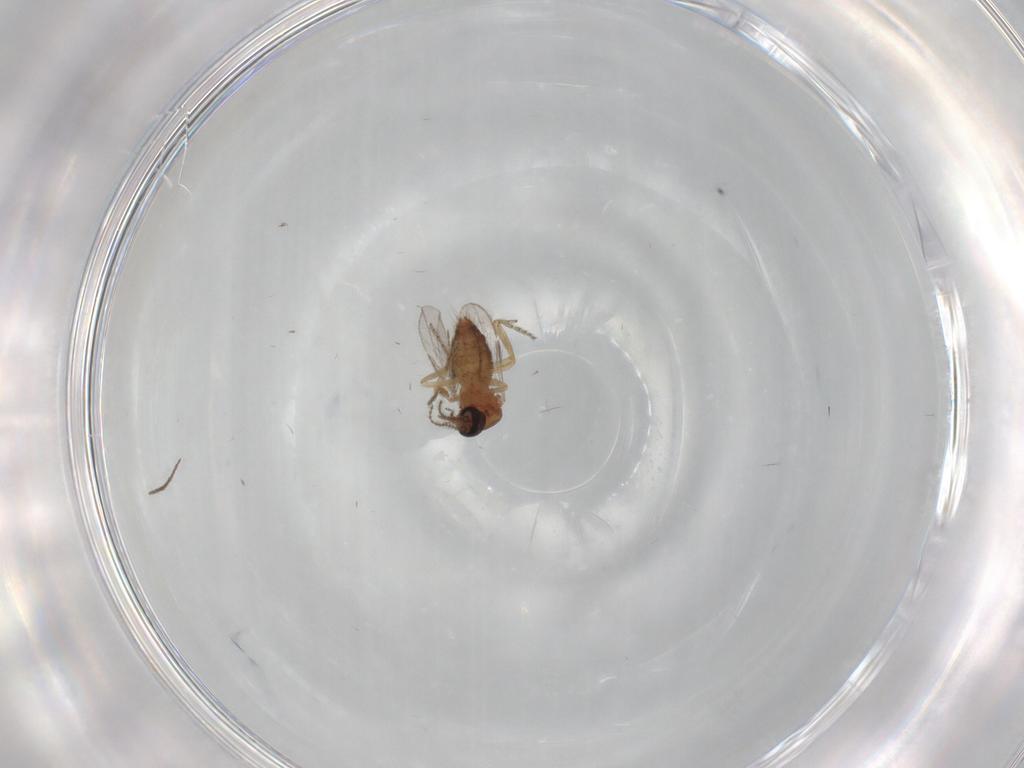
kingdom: Animalia
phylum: Arthropoda
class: Insecta
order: Diptera
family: Ceratopogonidae
